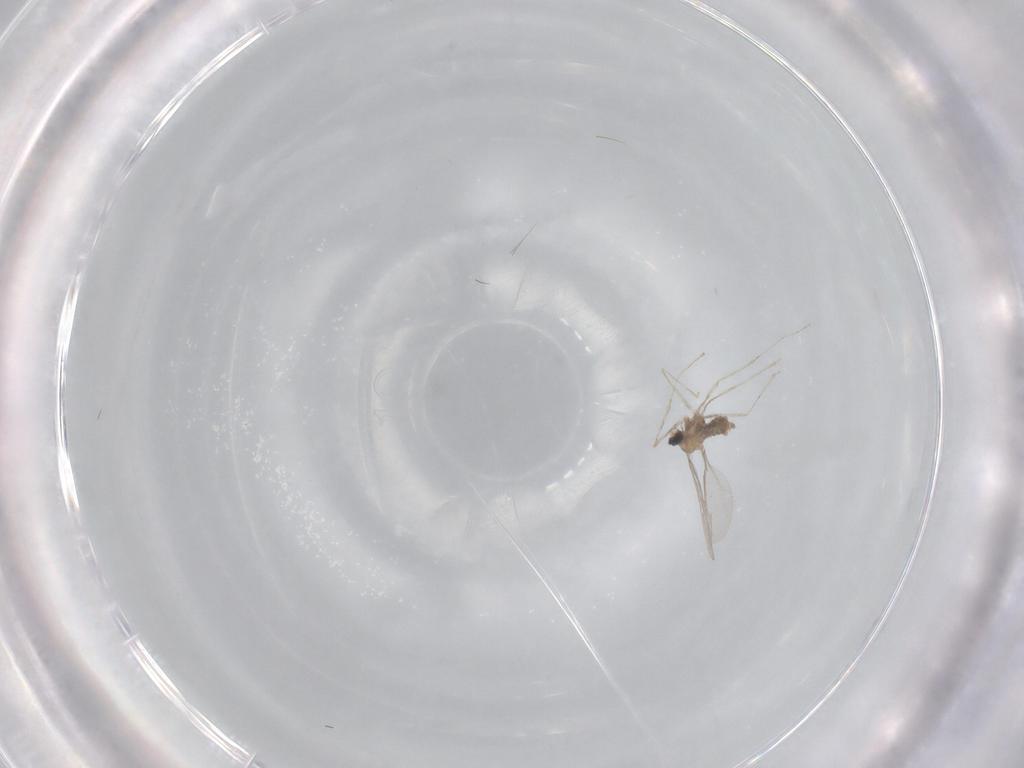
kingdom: Animalia
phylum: Arthropoda
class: Insecta
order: Diptera
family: Cecidomyiidae
